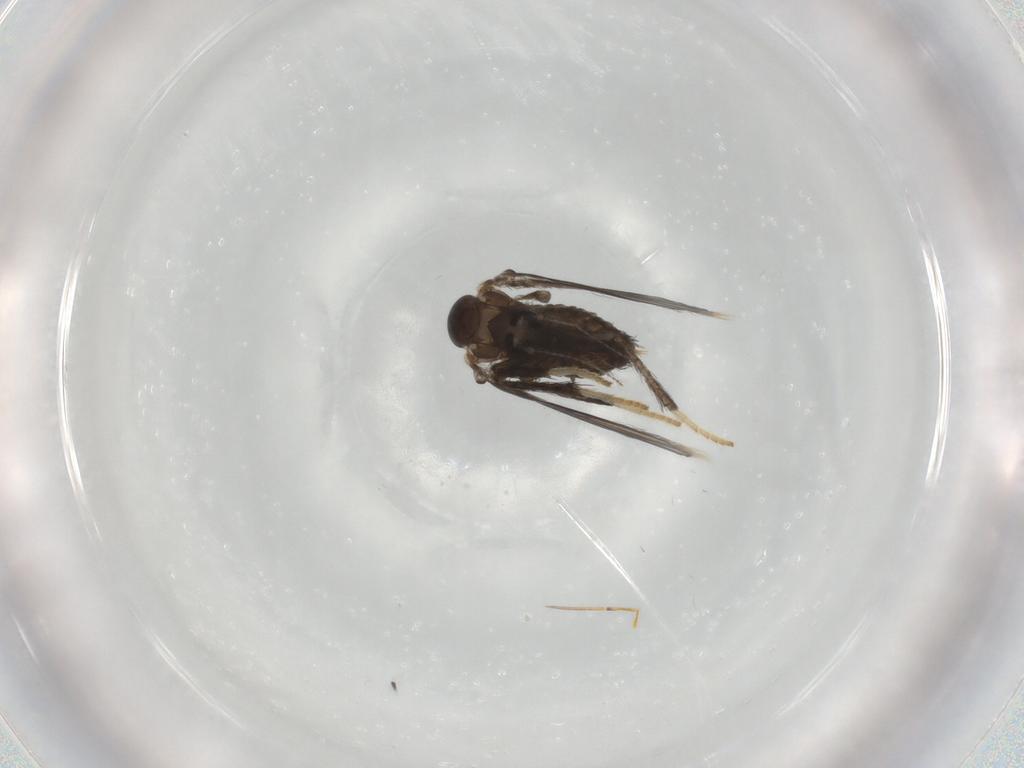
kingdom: Animalia
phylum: Arthropoda
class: Insecta
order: Diptera
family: Psychodidae
